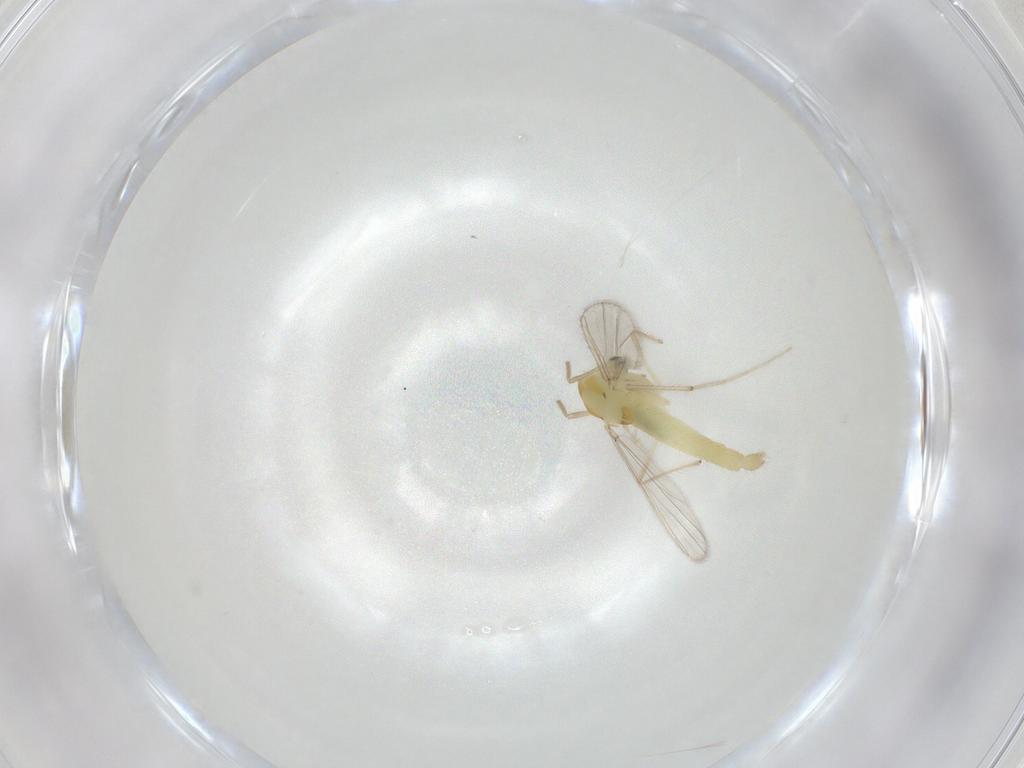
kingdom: Animalia
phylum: Arthropoda
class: Insecta
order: Diptera
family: Chironomidae
